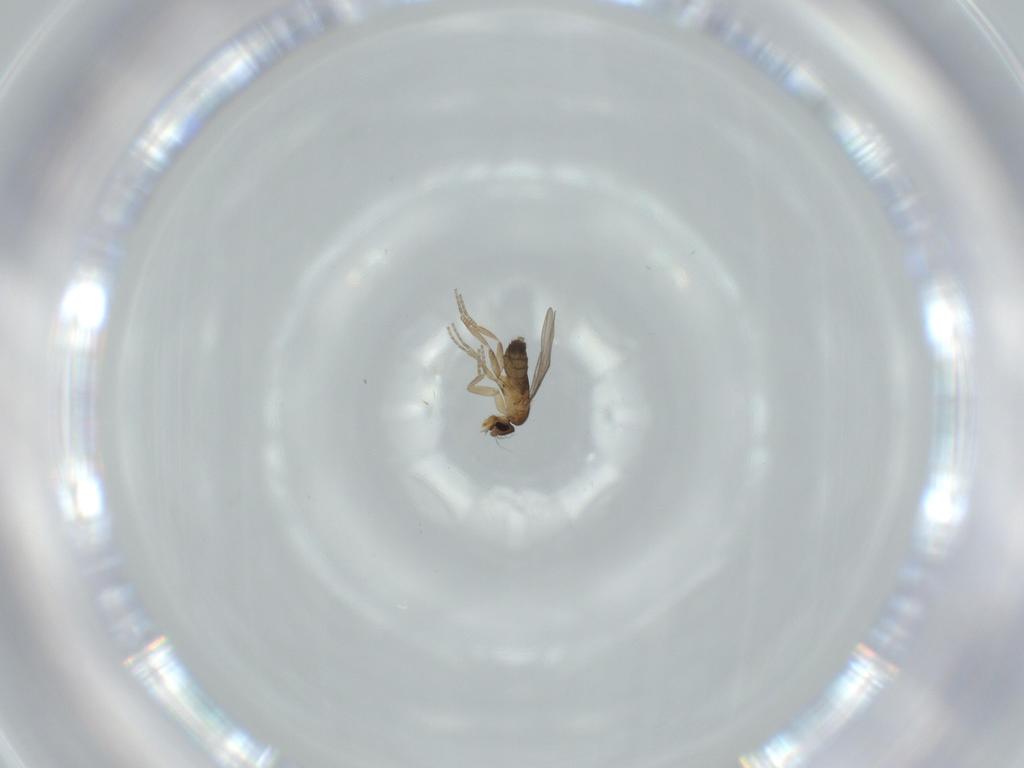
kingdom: Animalia
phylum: Arthropoda
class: Insecta
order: Diptera
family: Phoridae
